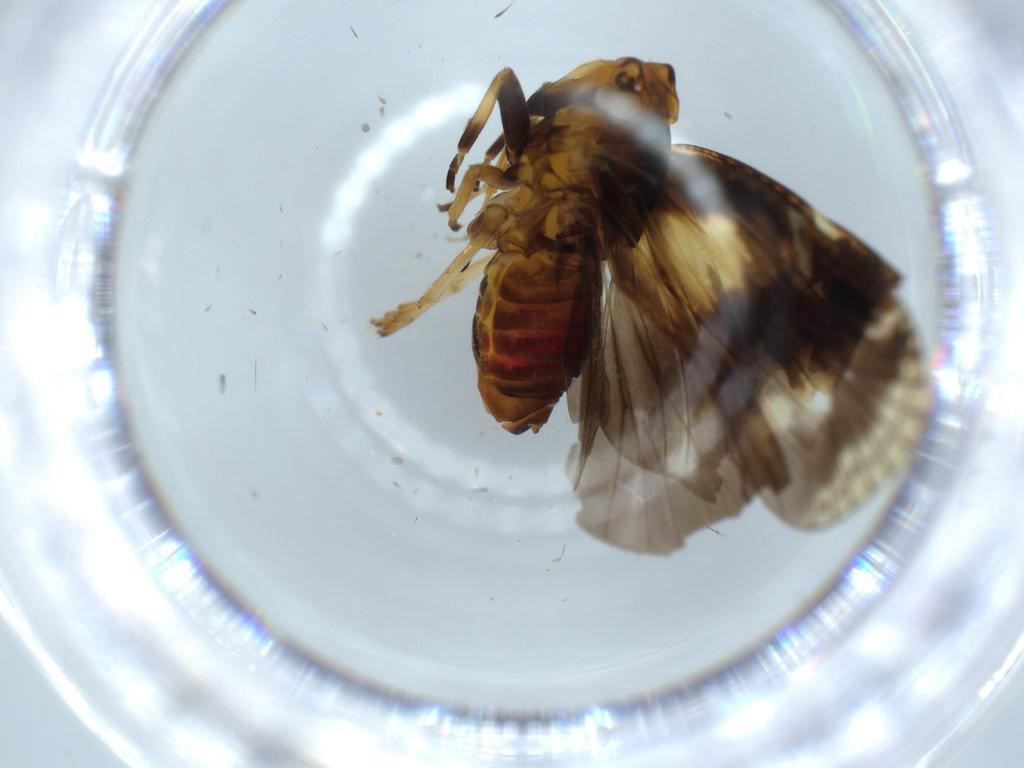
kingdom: Animalia
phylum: Arthropoda
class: Insecta
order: Hemiptera
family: Cixiidae
